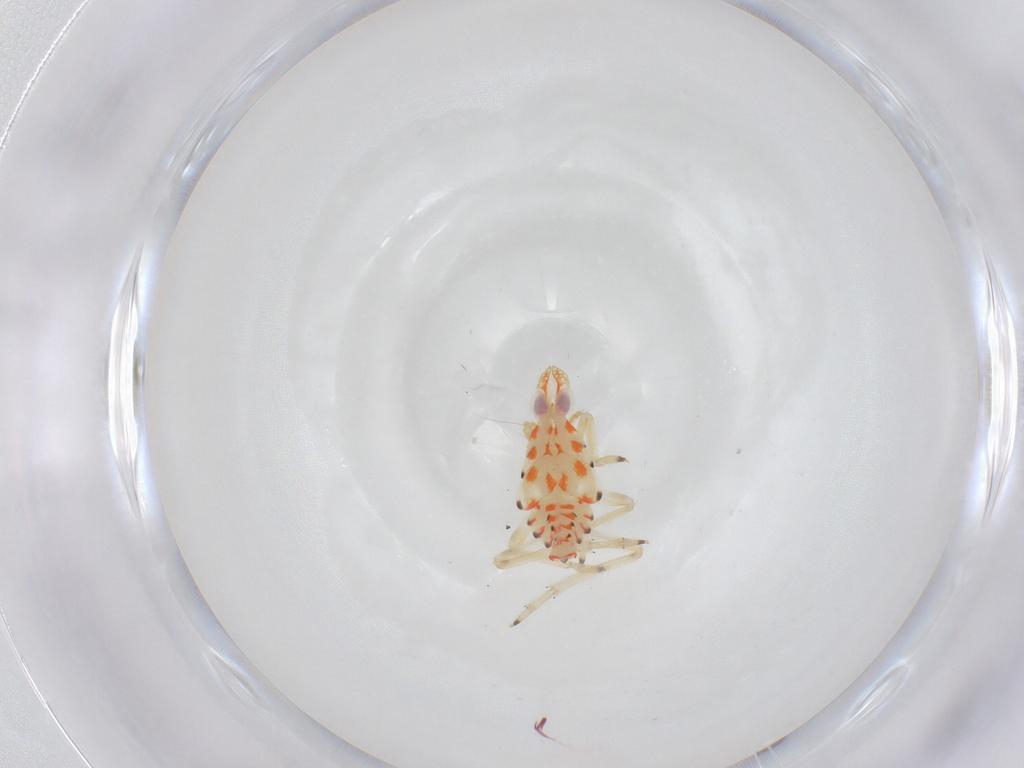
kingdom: Animalia
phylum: Arthropoda
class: Insecta
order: Hemiptera
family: Tropiduchidae
